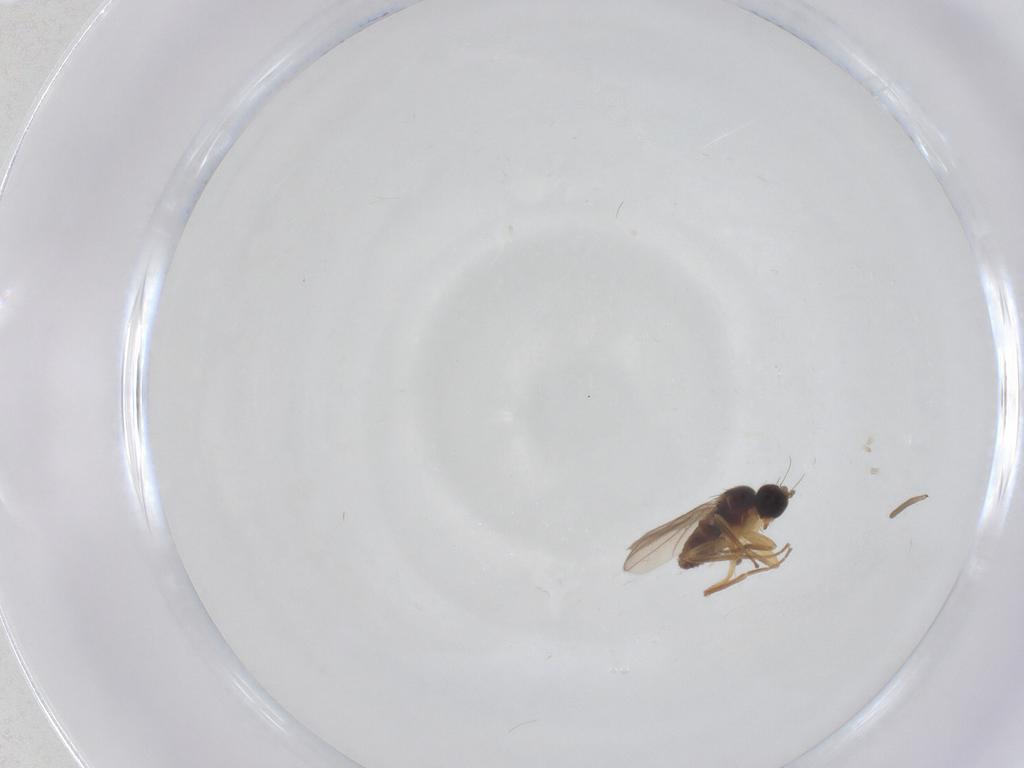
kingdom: Animalia
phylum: Arthropoda
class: Insecta
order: Diptera
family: Hybotidae
